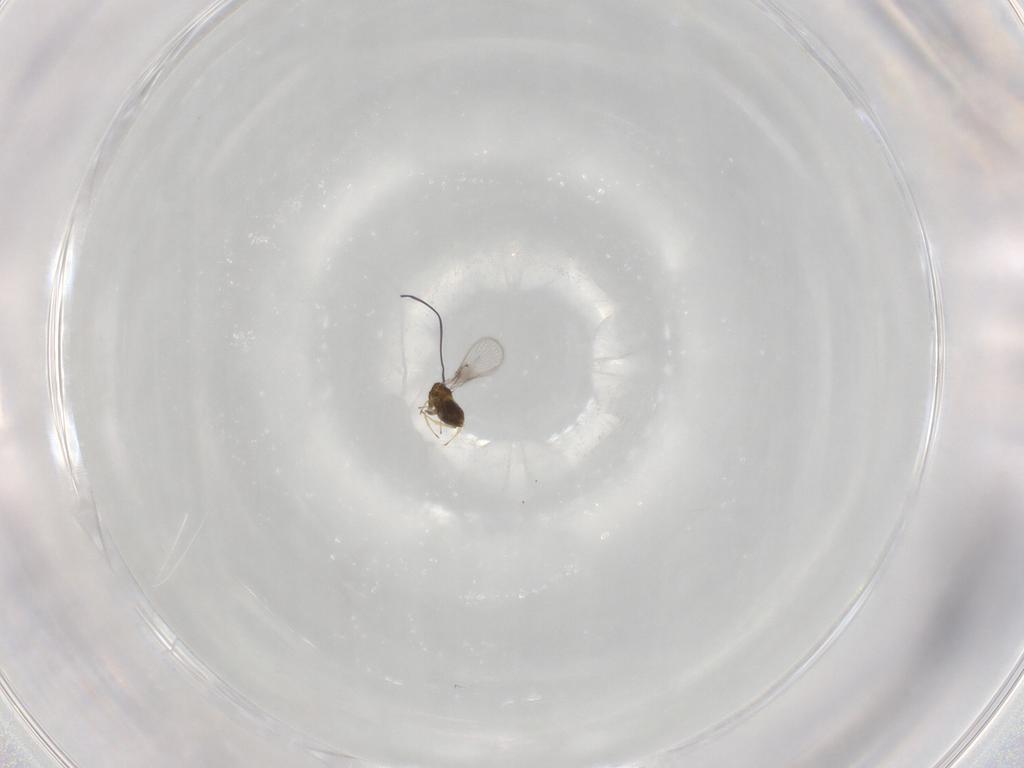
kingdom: Animalia
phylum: Arthropoda
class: Insecta
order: Hymenoptera
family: Trichogrammatidae
